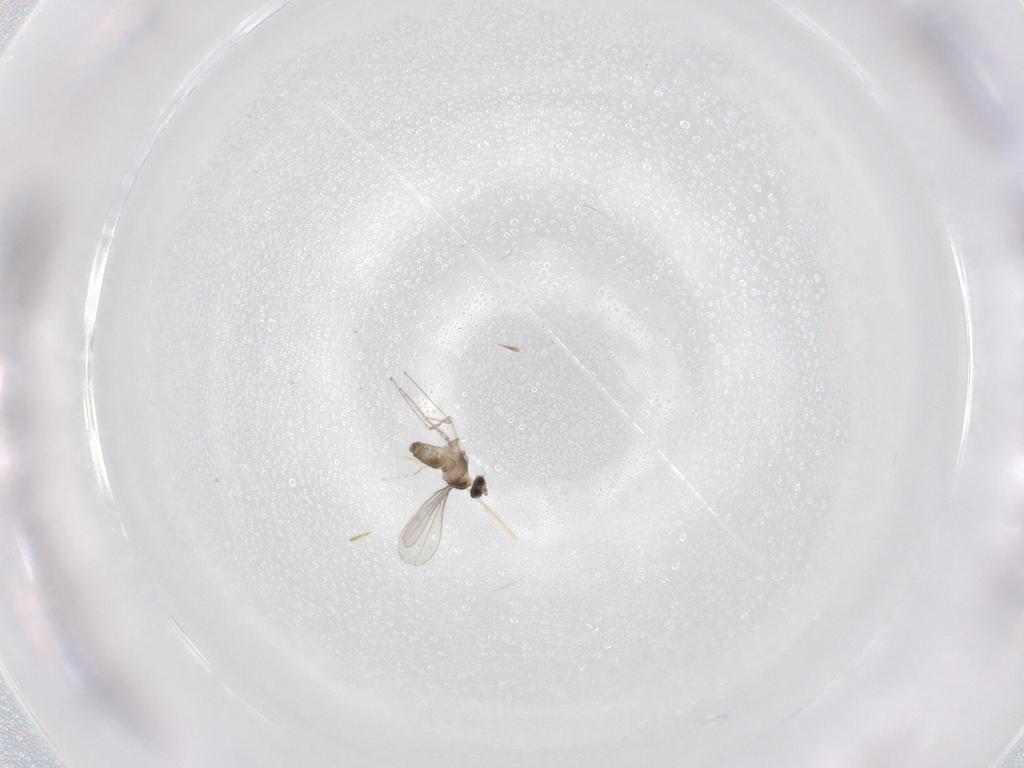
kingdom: Animalia
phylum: Arthropoda
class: Insecta
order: Diptera
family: Cecidomyiidae
